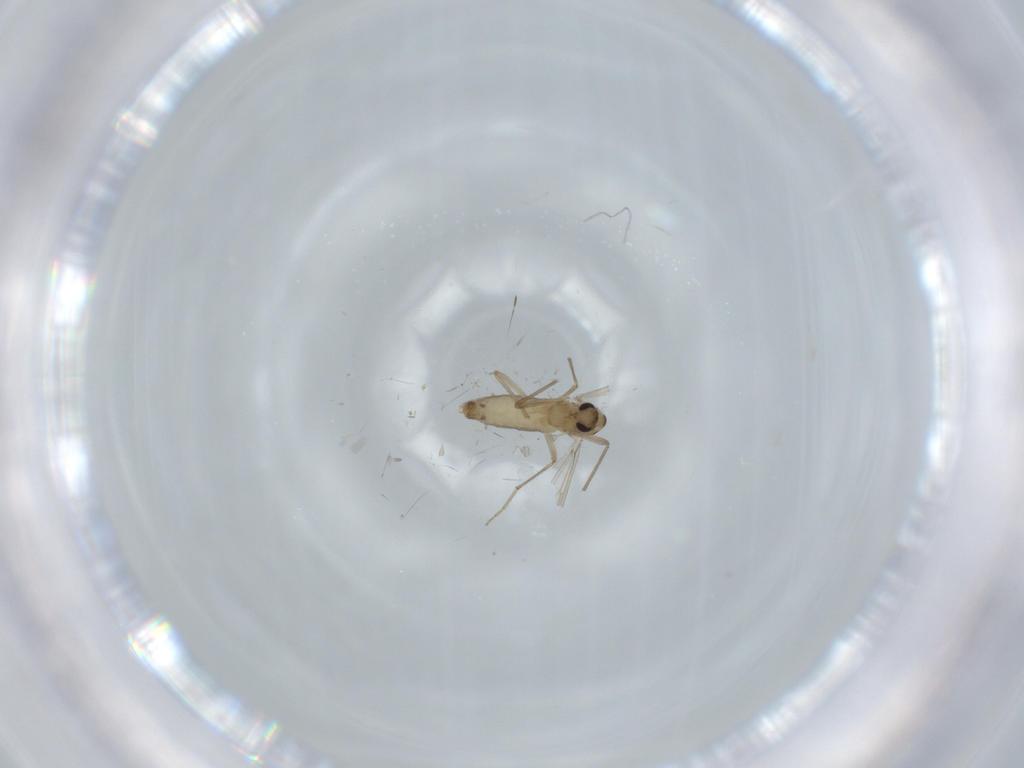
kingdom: Animalia
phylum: Arthropoda
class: Insecta
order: Diptera
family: Chironomidae
